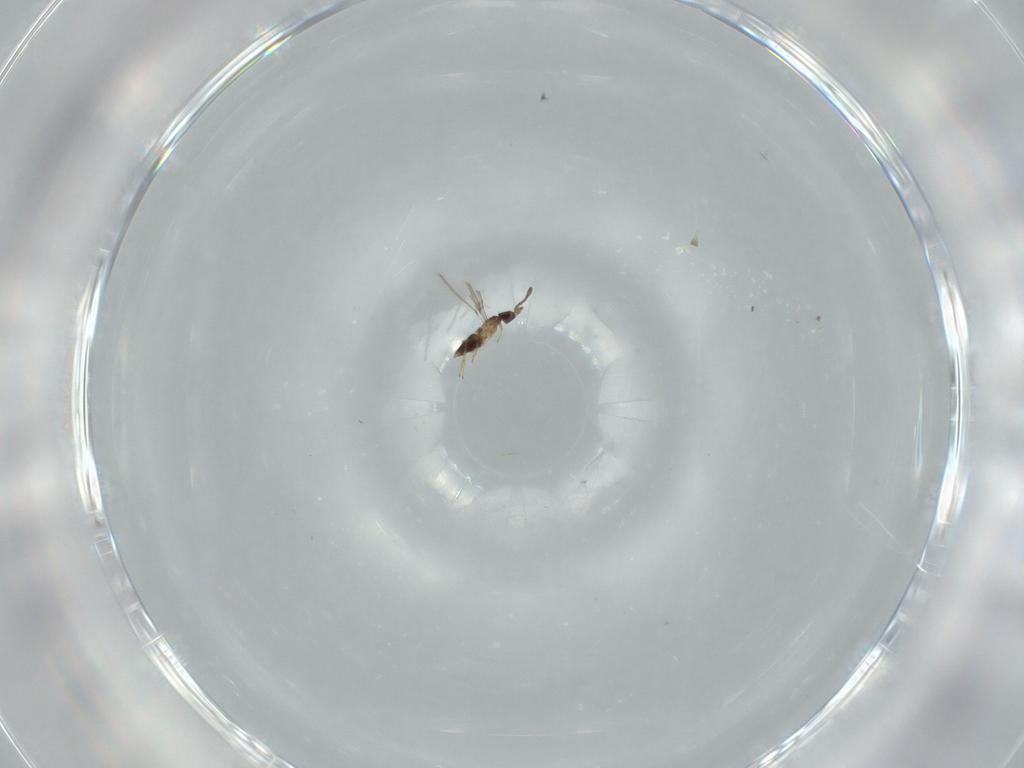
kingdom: Animalia
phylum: Arthropoda
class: Insecta
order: Hymenoptera
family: Mymaridae
